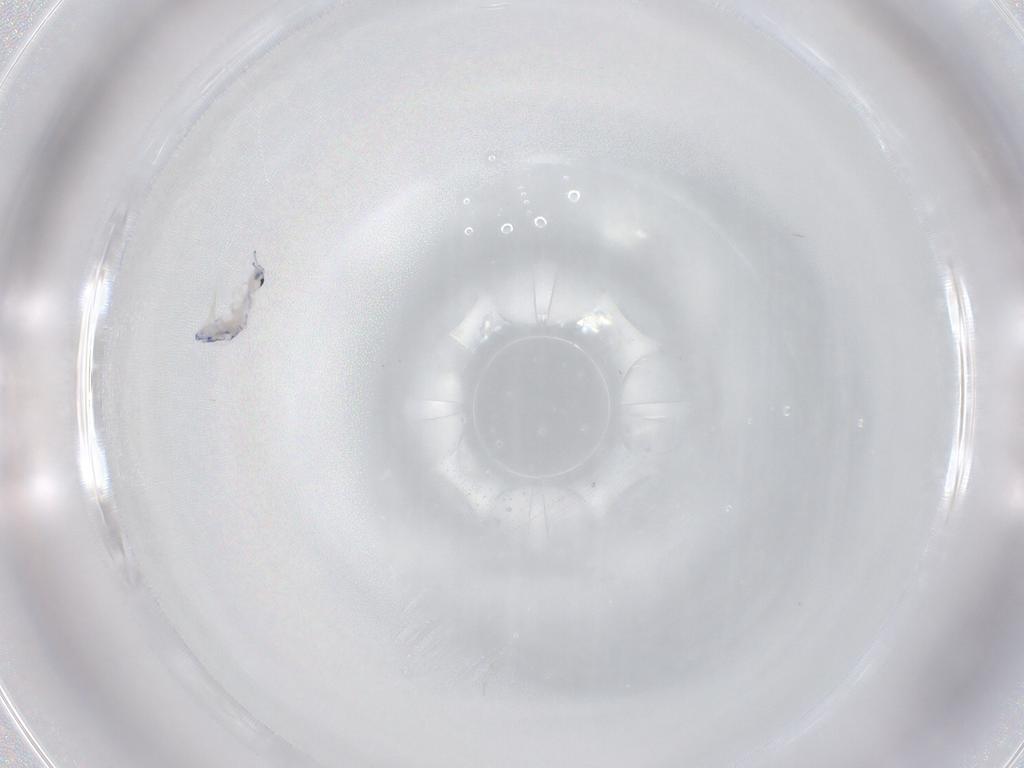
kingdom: Animalia
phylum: Arthropoda
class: Collembola
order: Entomobryomorpha
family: Entomobryidae
